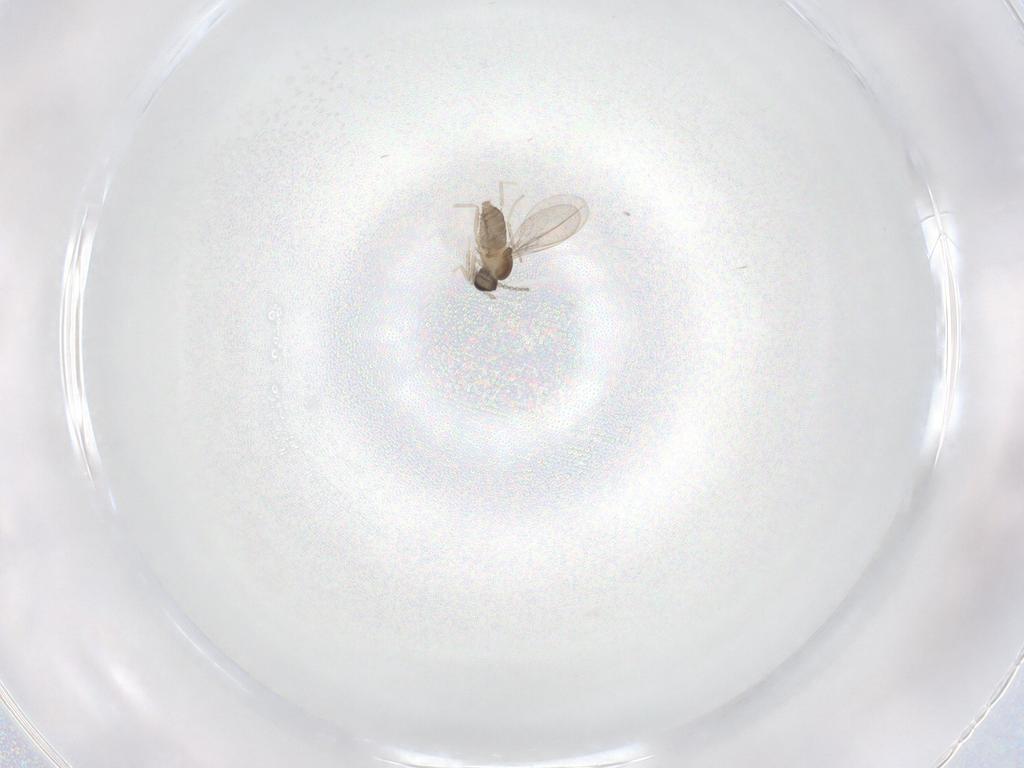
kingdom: Animalia
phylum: Arthropoda
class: Insecta
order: Diptera
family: Cecidomyiidae
